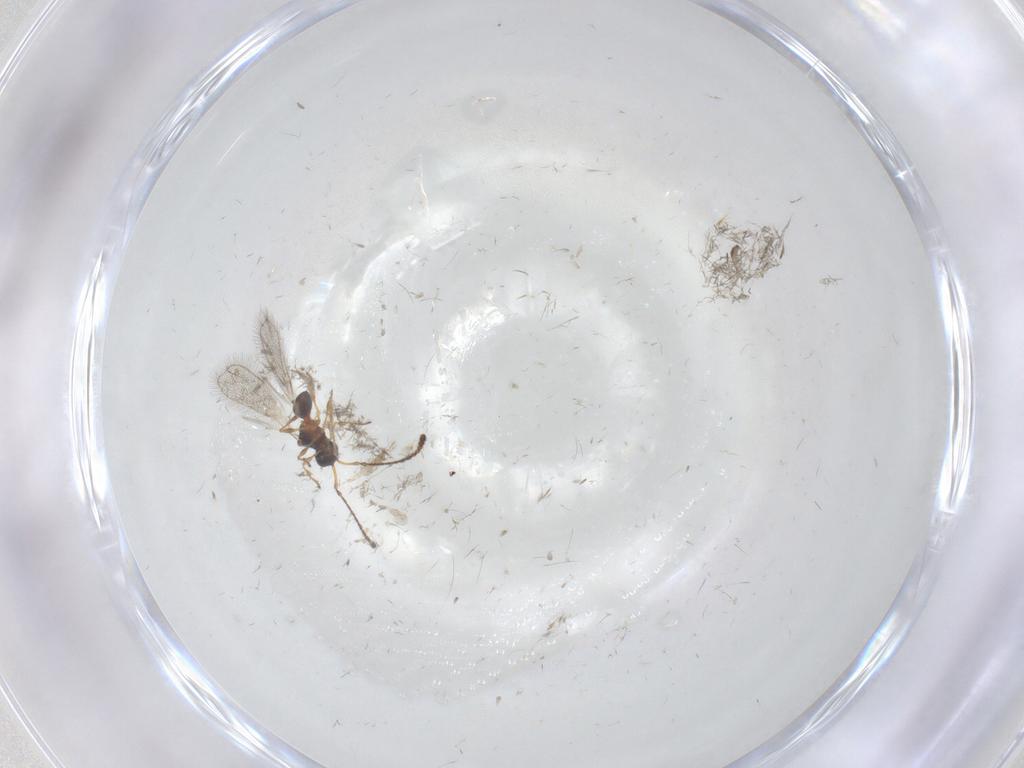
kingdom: Animalia
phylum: Arthropoda
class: Insecta
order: Hymenoptera
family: Diapriidae
